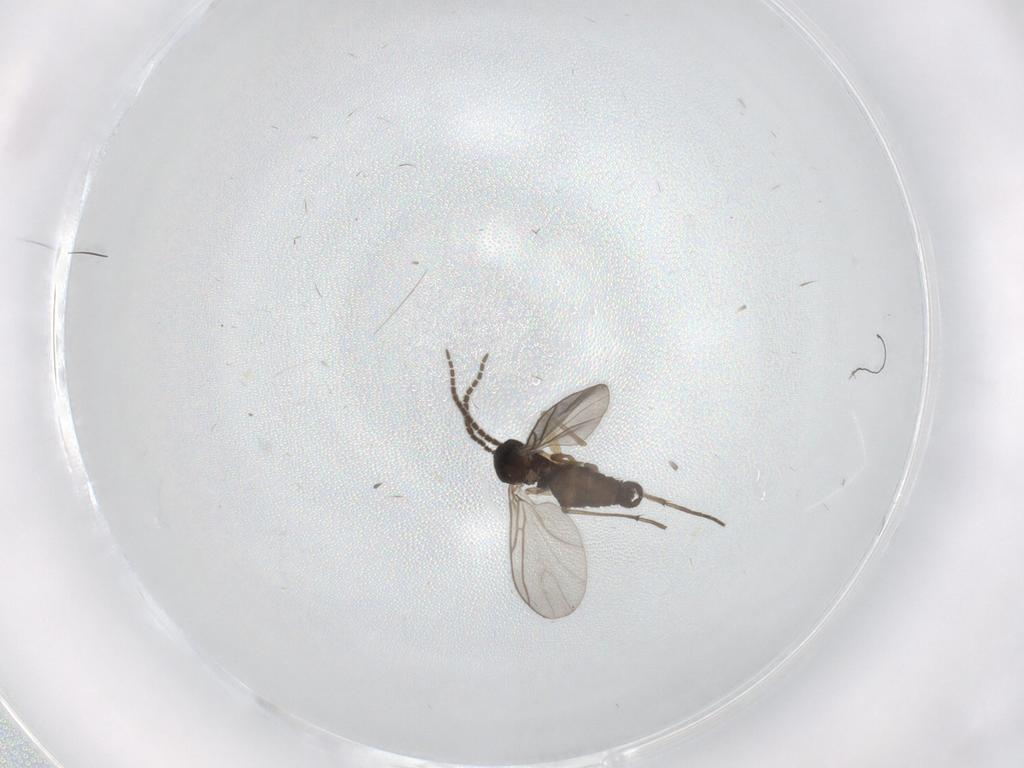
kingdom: Animalia
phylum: Arthropoda
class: Insecta
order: Diptera
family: Sciaridae
